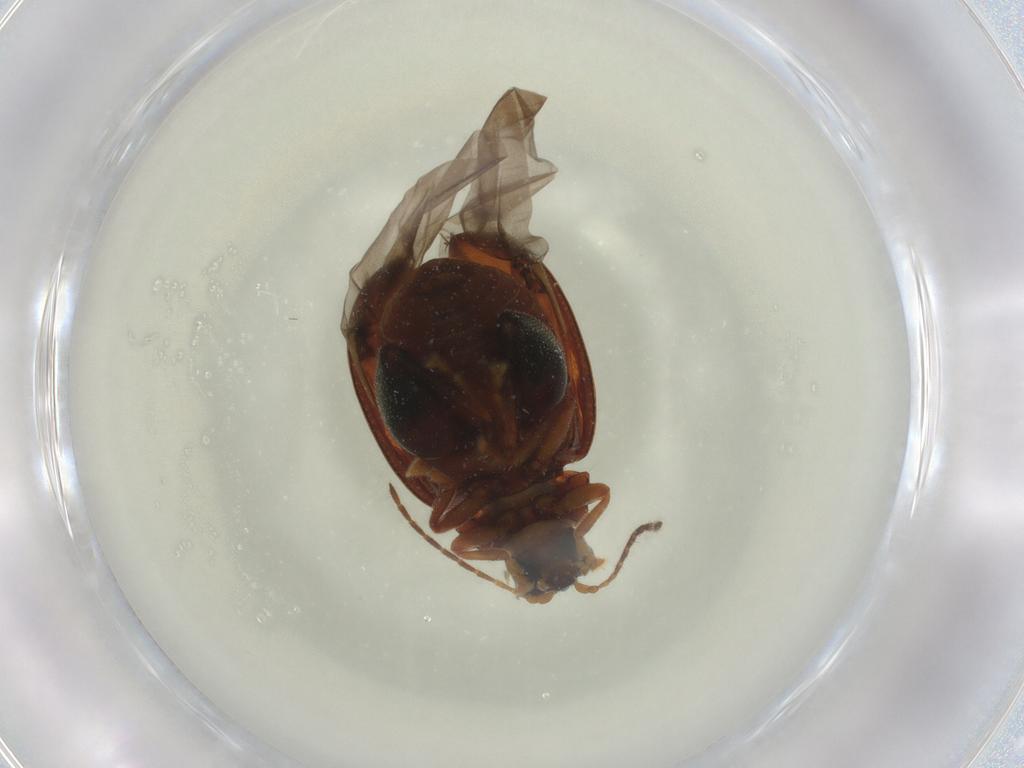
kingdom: Animalia
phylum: Arthropoda
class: Insecta
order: Coleoptera
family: Chrysomelidae
